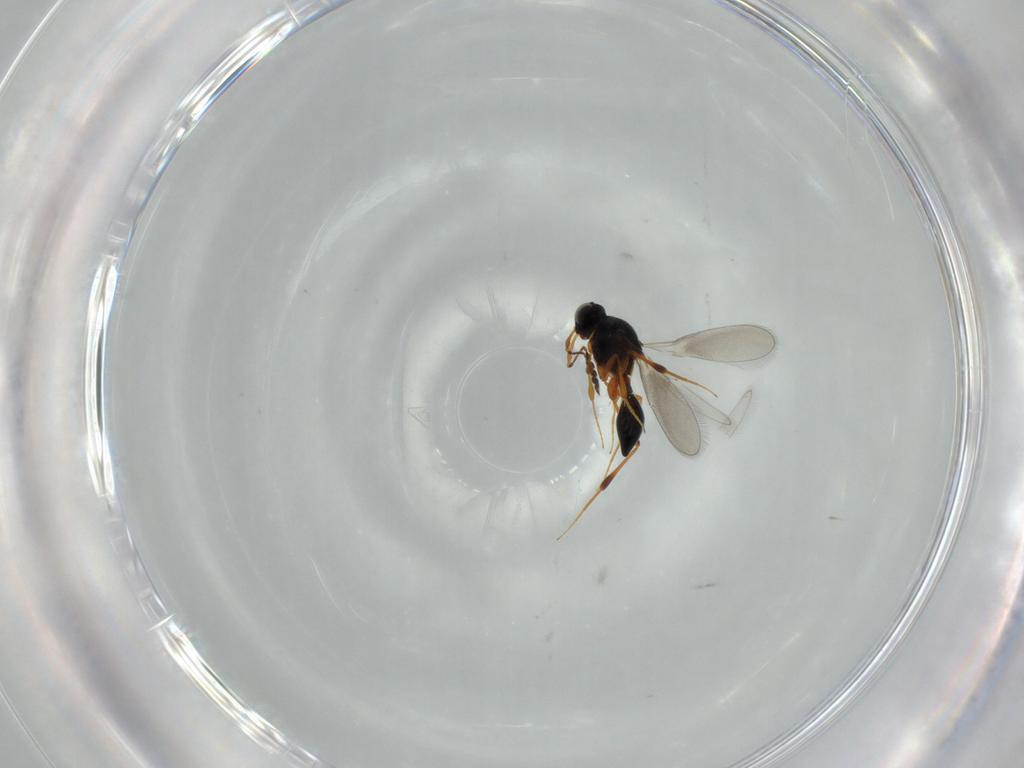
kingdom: Animalia
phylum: Arthropoda
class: Insecta
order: Hymenoptera
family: Platygastridae
